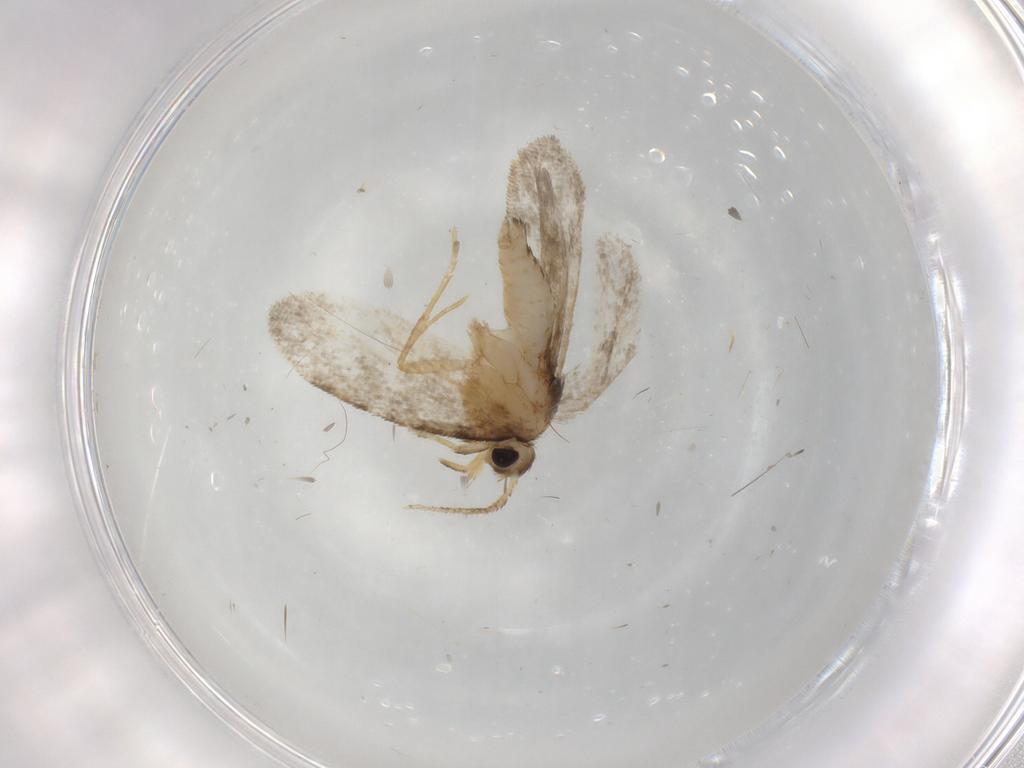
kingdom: Animalia
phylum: Arthropoda
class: Insecta
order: Lepidoptera
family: Psychidae
